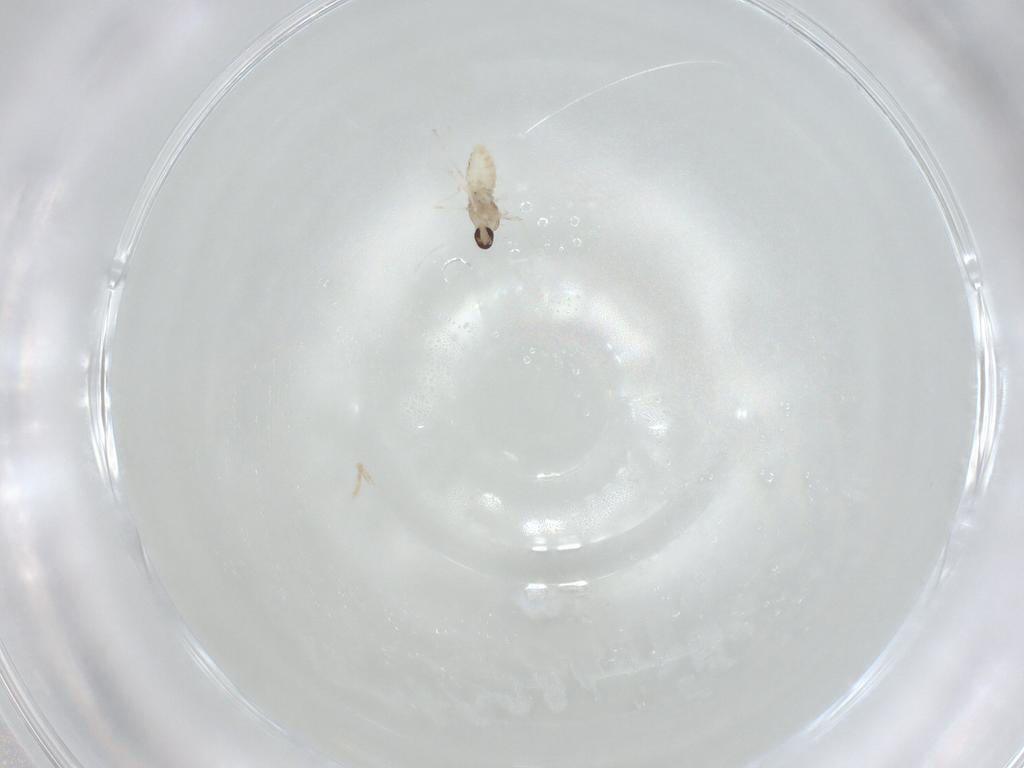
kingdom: Animalia
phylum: Arthropoda
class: Insecta
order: Diptera
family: Cecidomyiidae
